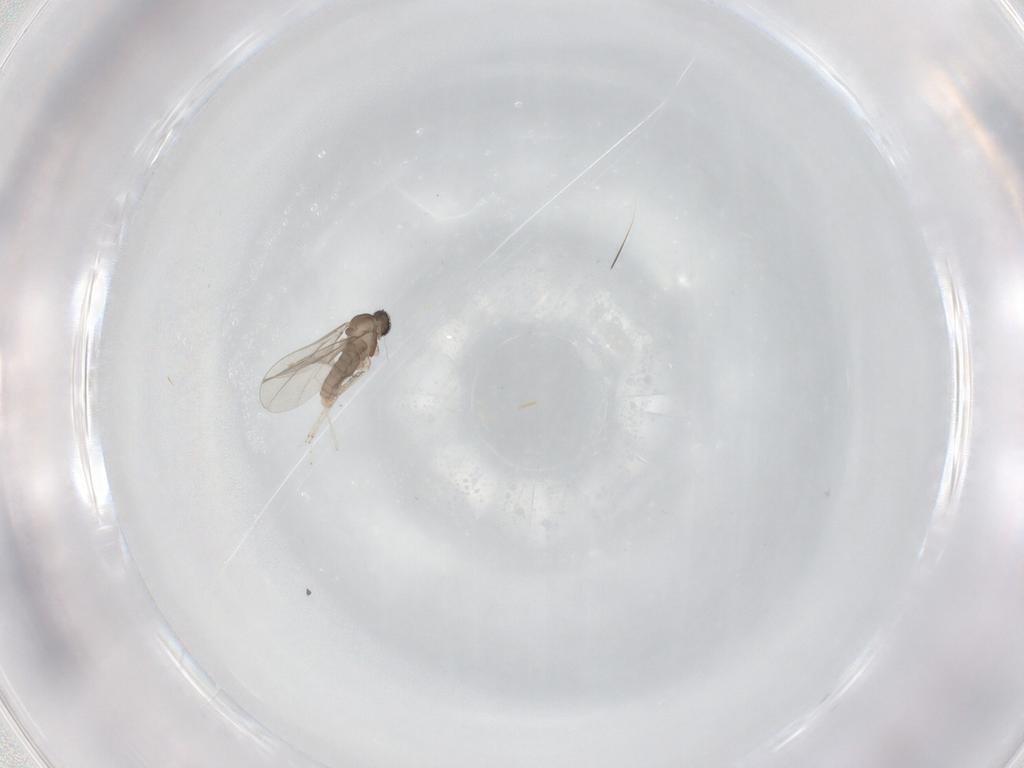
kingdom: Animalia
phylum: Arthropoda
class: Insecta
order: Diptera
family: Cecidomyiidae
